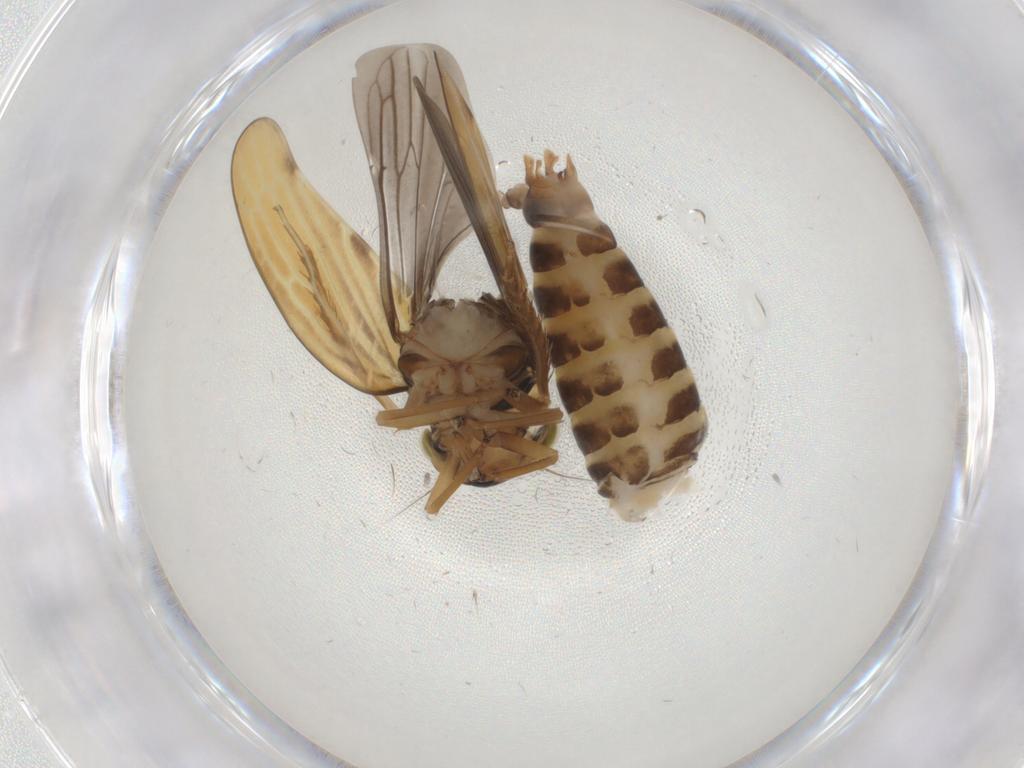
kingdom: Animalia
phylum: Arthropoda
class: Insecta
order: Hemiptera
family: Cicadellidae
